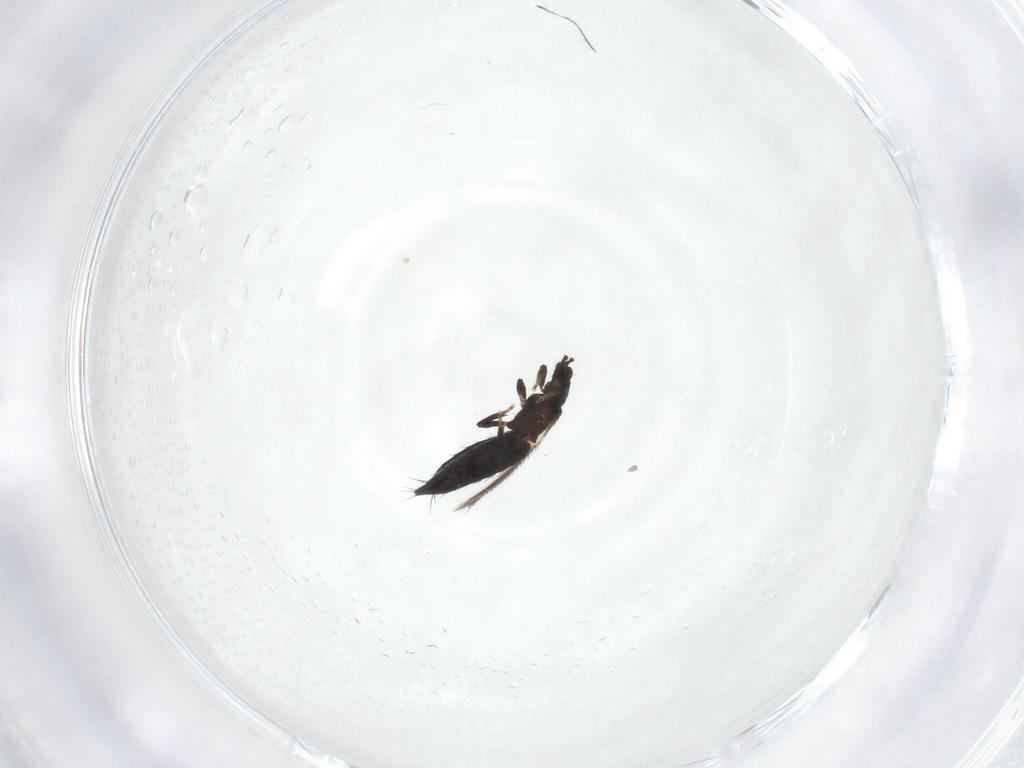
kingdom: Animalia
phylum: Arthropoda
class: Insecta
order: Thysanoptera
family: Thripidae
